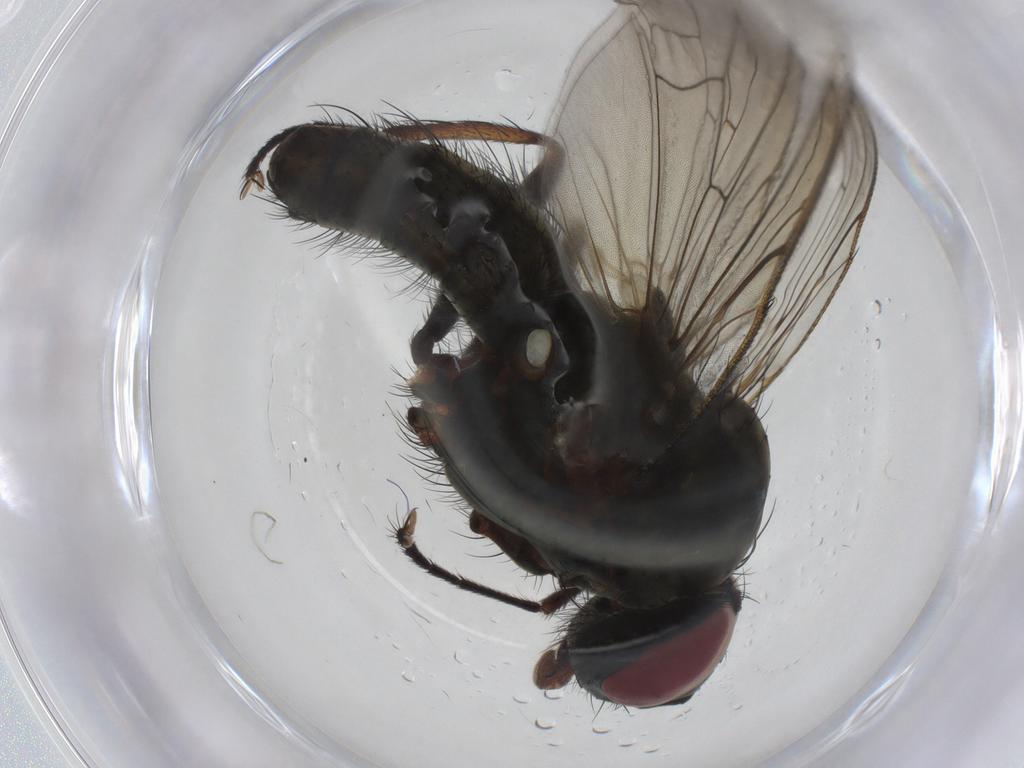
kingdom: Animalia
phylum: Arthropoda
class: Insecta
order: Diptera
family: Anthomyiidae
